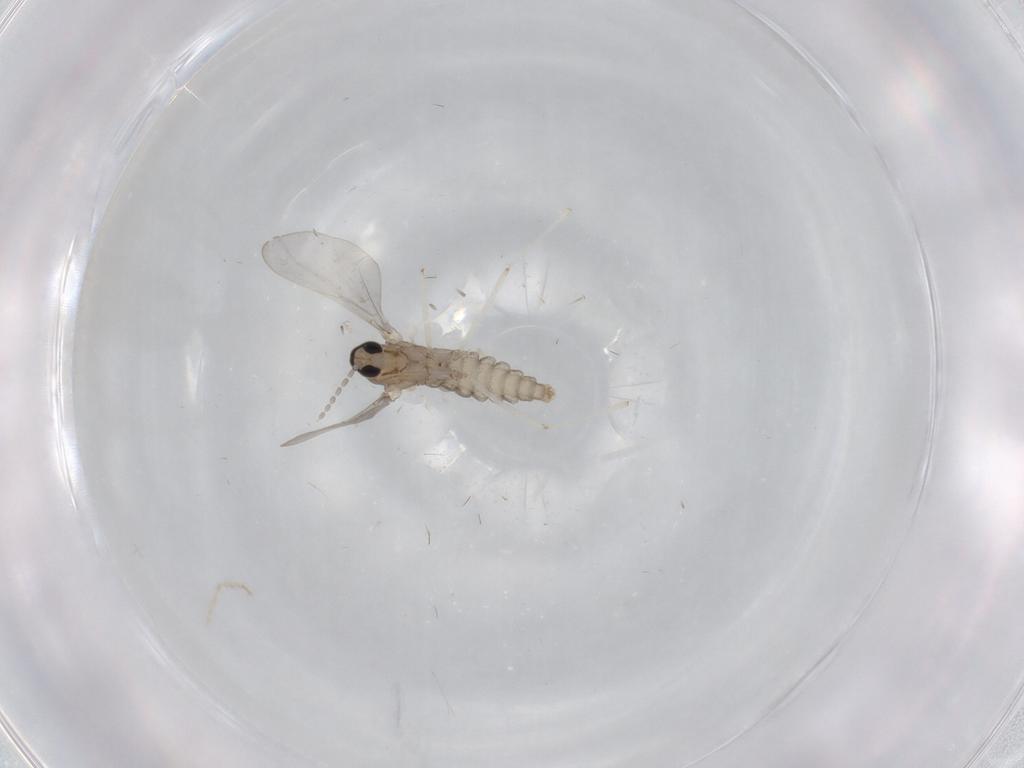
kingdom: Animalia
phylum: Arthropoda
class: Insecta
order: Diptera
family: Cecidomyiidae
